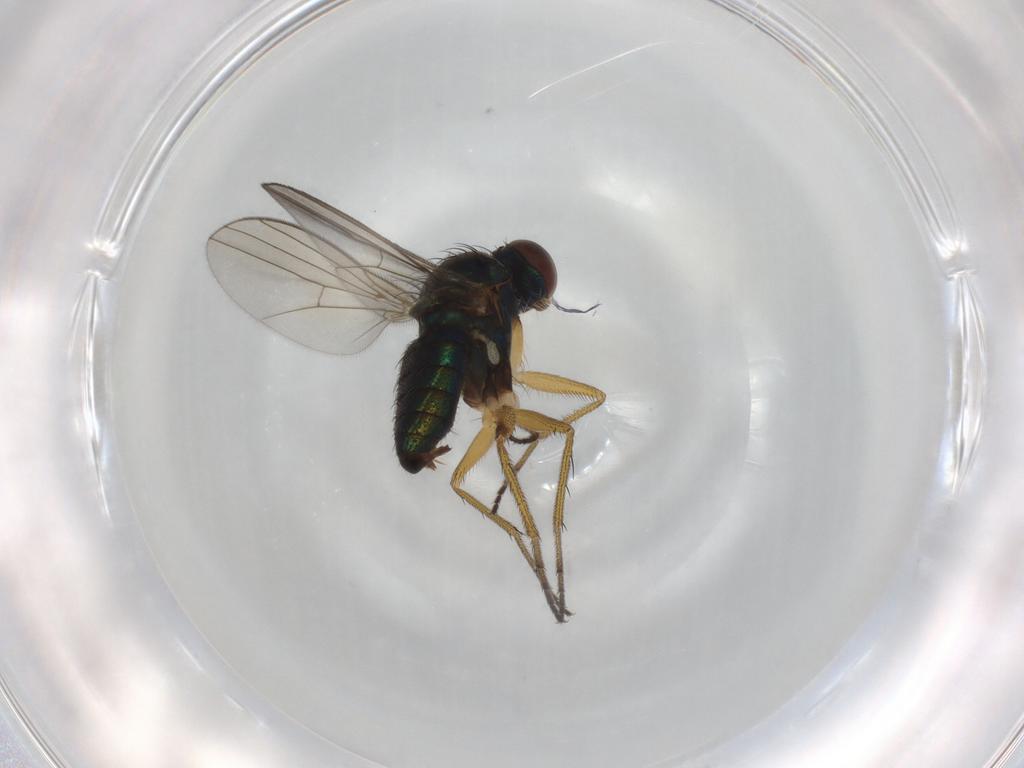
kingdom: Animalia
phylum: Arthropoda
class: Insecta
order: Diptera
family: Dolichopodidae
